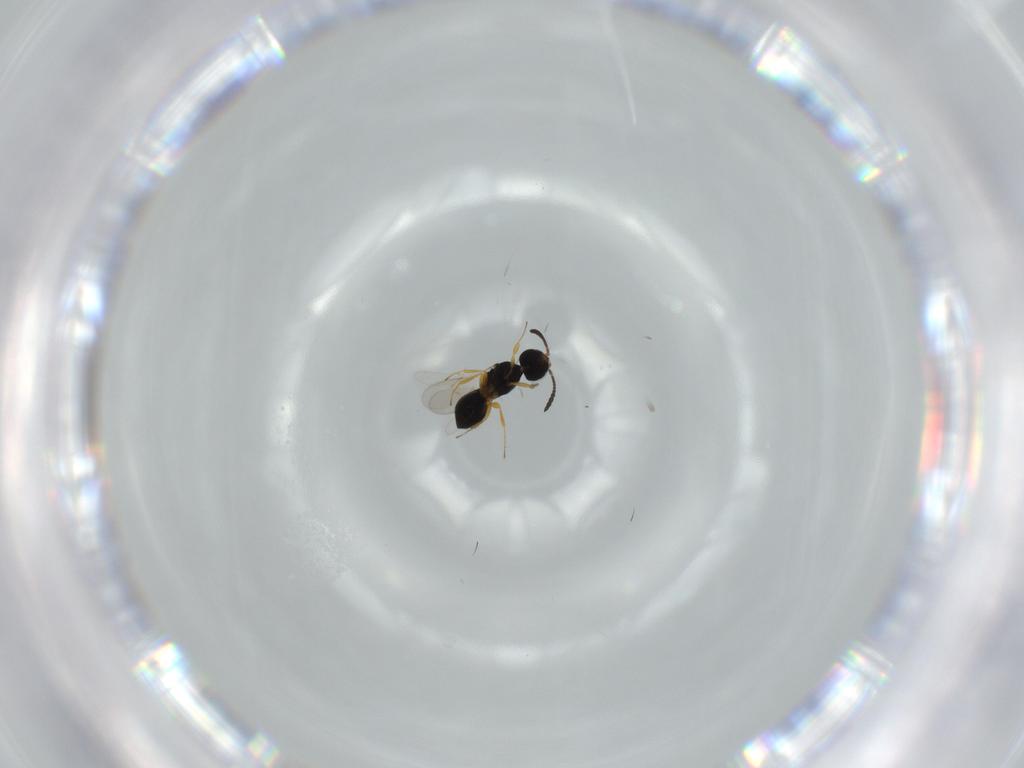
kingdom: Animalia
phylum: Arthropoda
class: Insecta
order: Hymenoptera
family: Scelionidae
